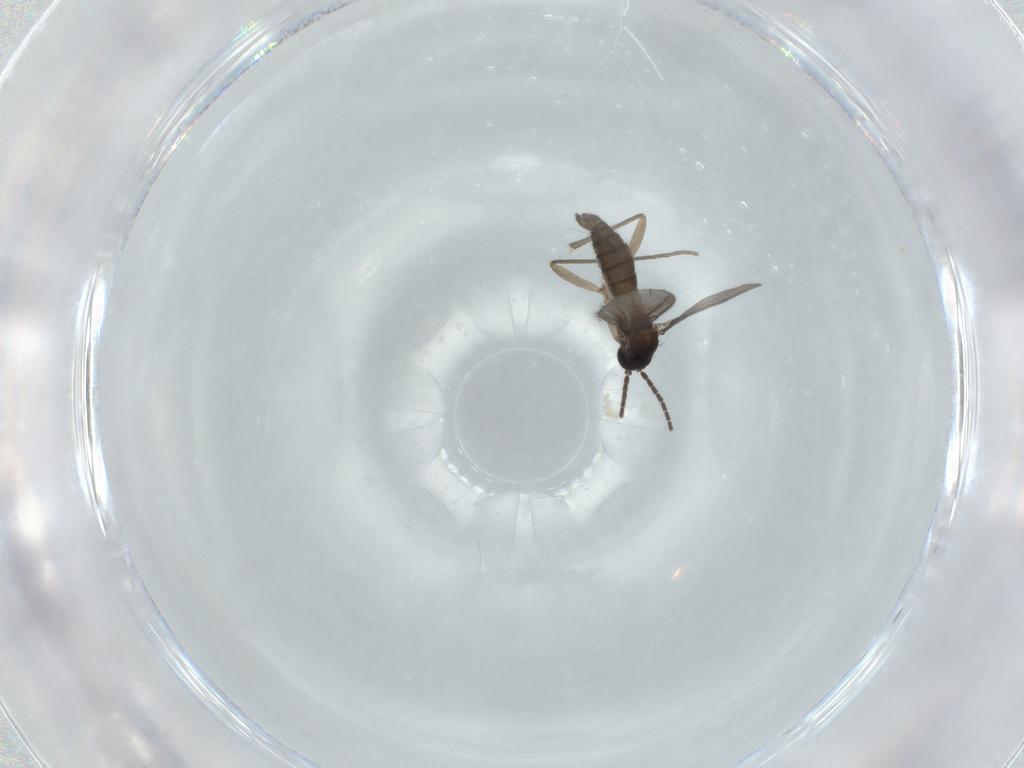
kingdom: Animalia
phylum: Arthropoda
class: Insecta
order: Diptera
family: Sciaridae
